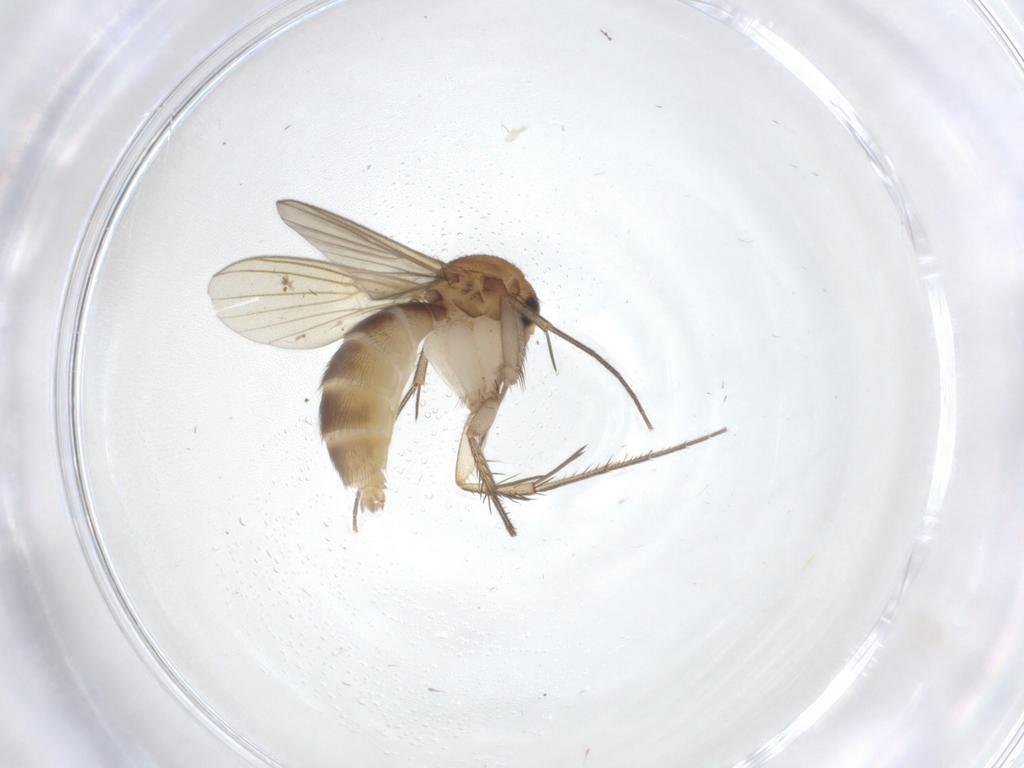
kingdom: Animalia
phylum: Arthropoda
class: Insecta
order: Diptera
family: Mycetophilidae
